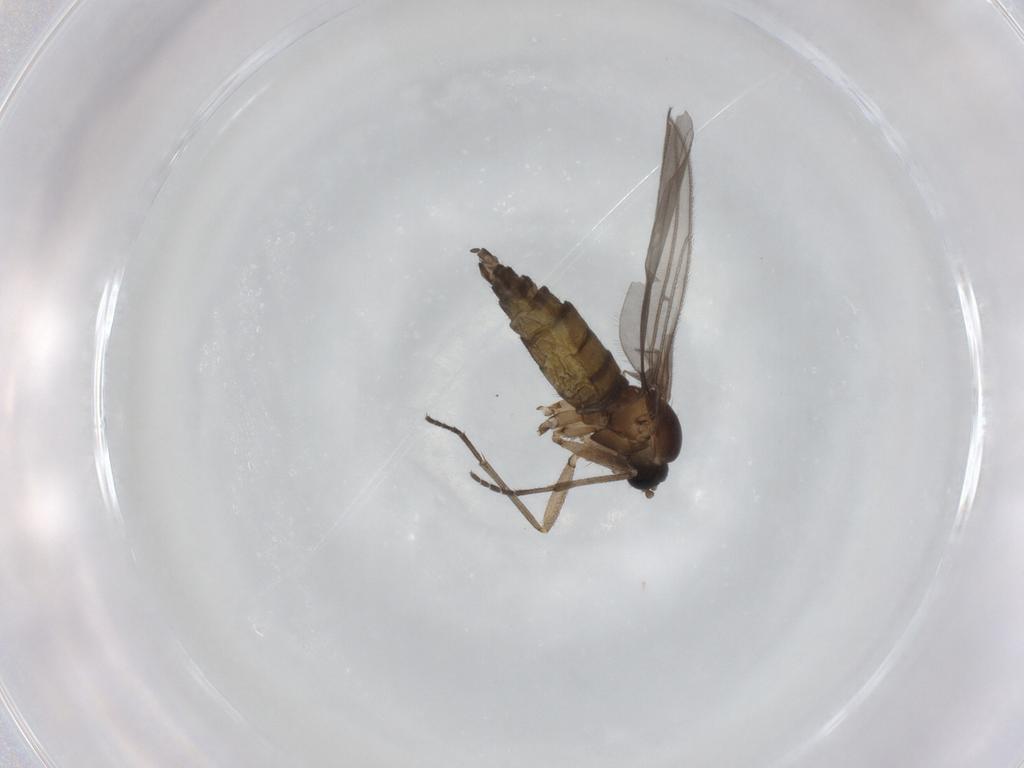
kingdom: Animalia
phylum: Arthropoda
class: Insecta
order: Diptera
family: Sciaridae
